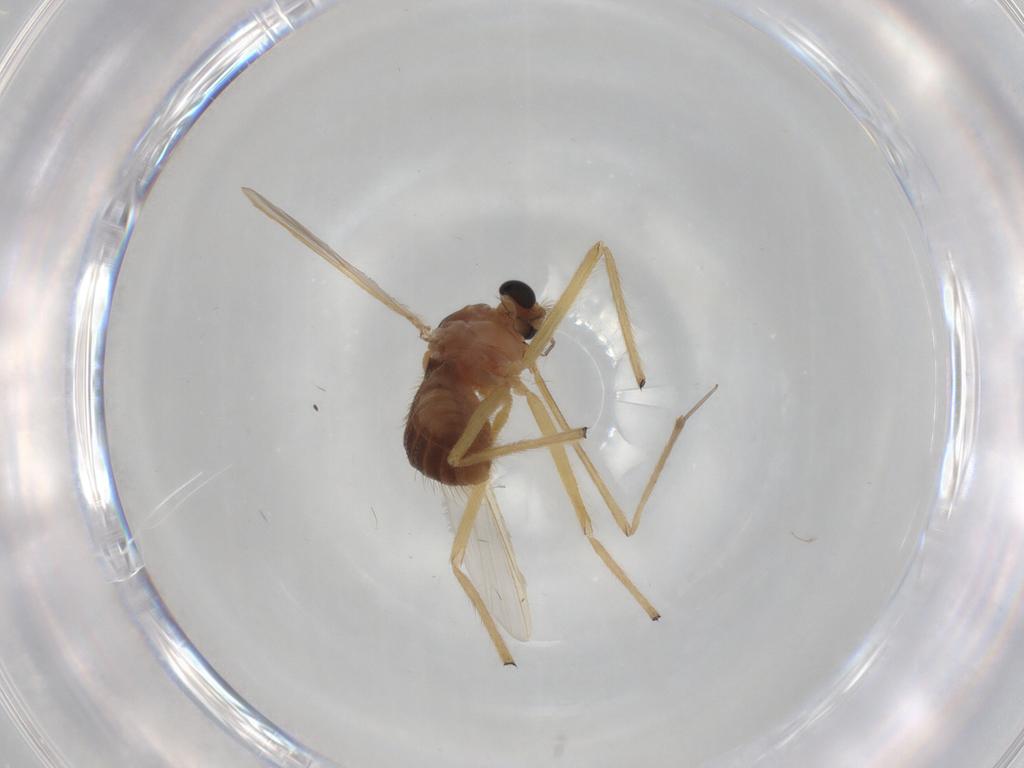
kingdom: Animalia
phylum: Arthropoda
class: Insecta
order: Diptera
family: Chironomidae
